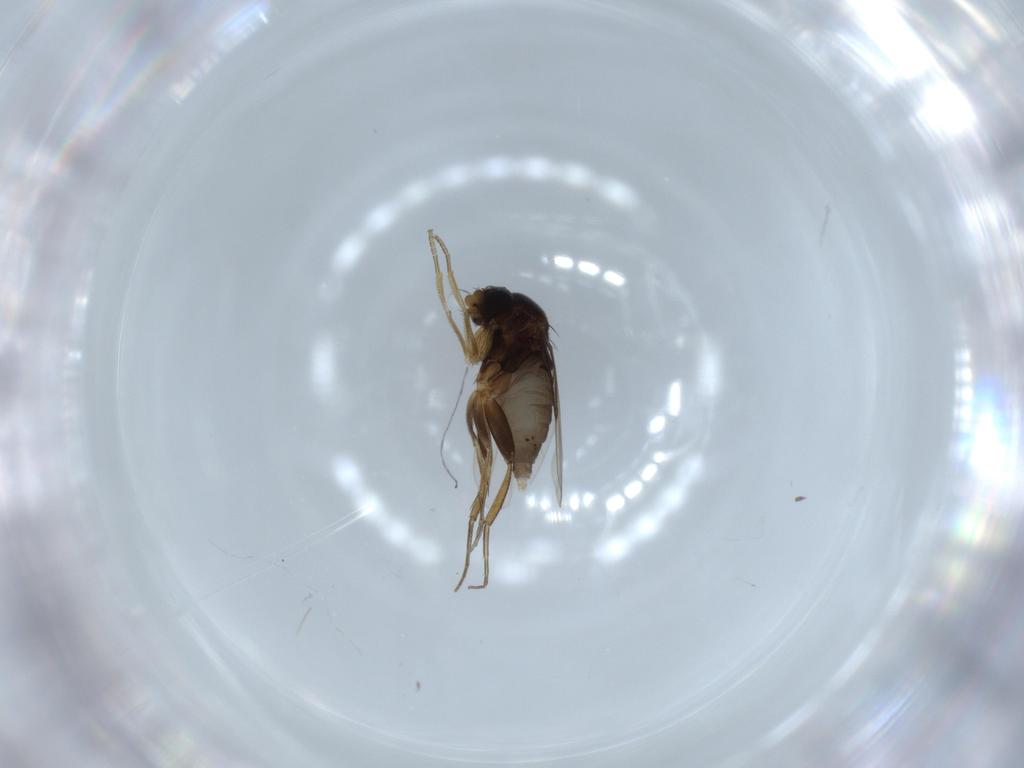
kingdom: Animalia
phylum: Arthropoda
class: Insecta
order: Diptera
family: Phoridae
